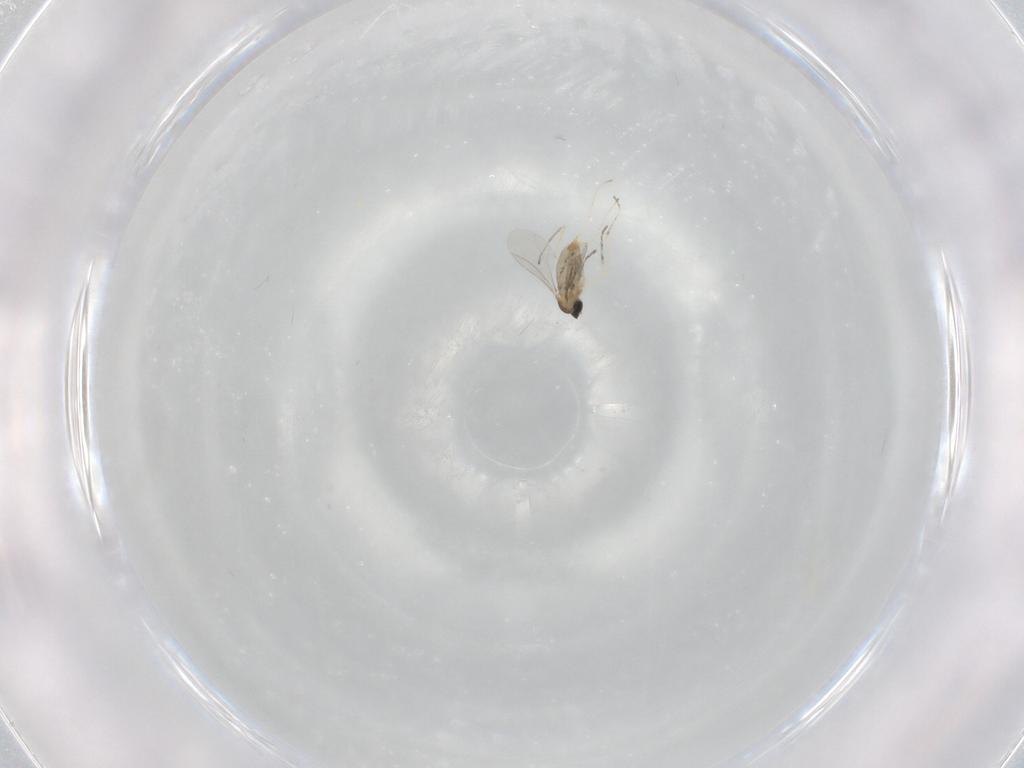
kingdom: Animalia
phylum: Arthropoda
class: Insecta
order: Diptera
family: Cecidomyiidae
